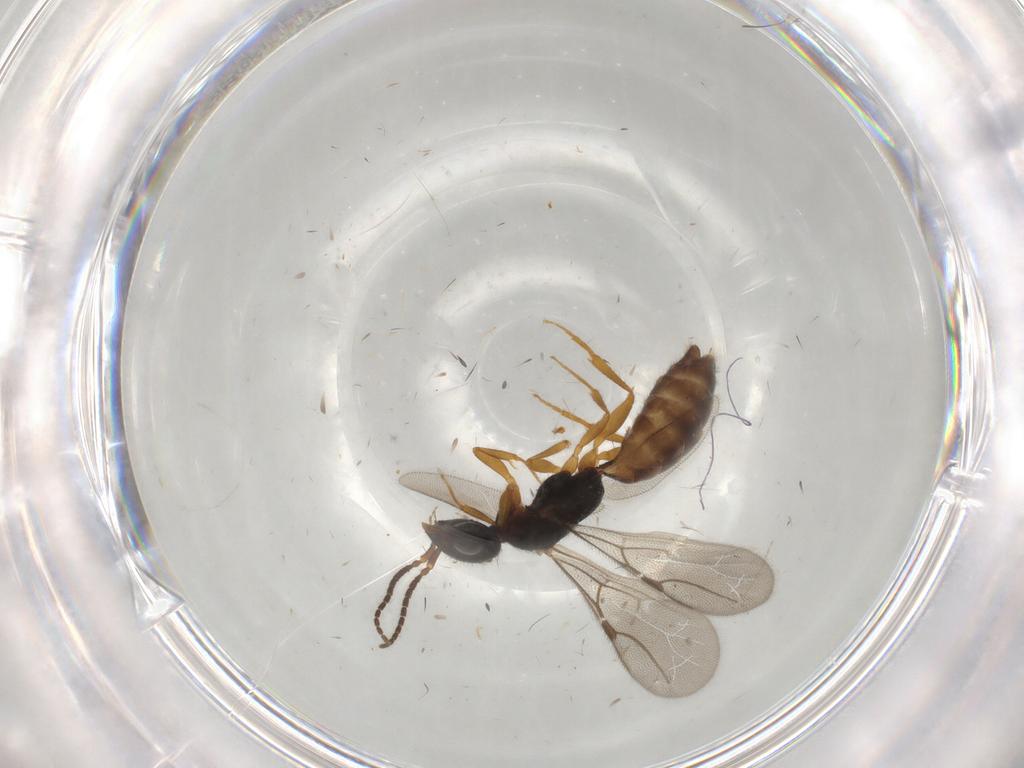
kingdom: Animalia
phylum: Arthropoda
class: Insecta
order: Hymenoptera
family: Bethylidae
